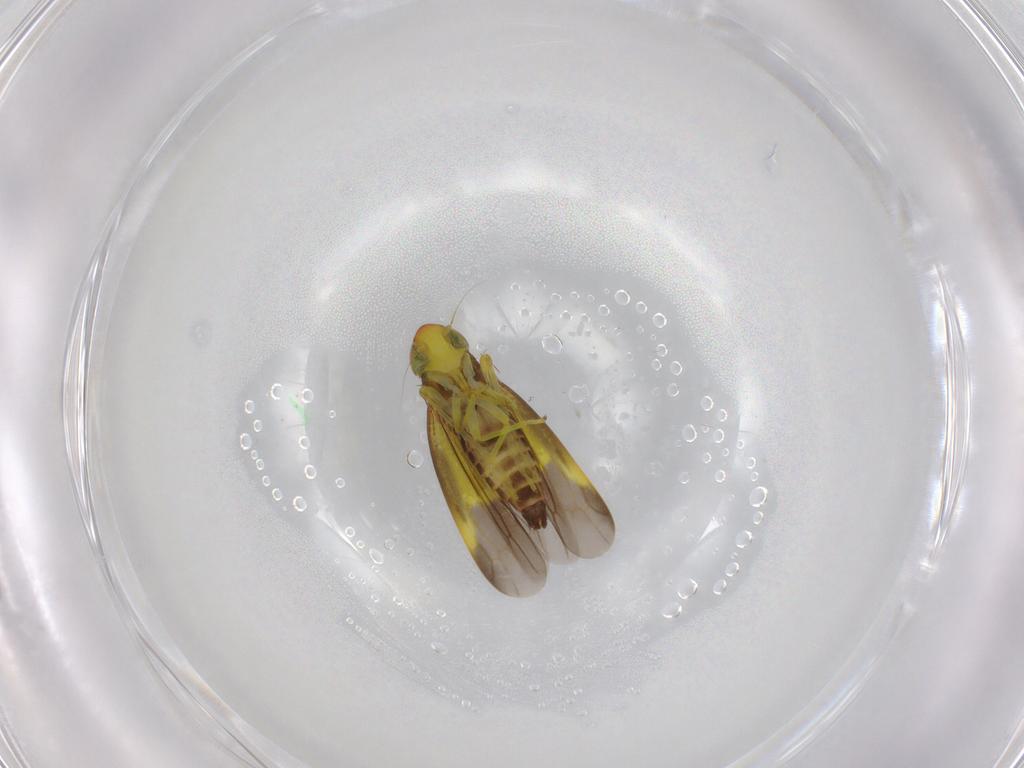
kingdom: Animalia
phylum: Arthropoda
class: Insecta
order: Hemiptera
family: Cicadellidae
